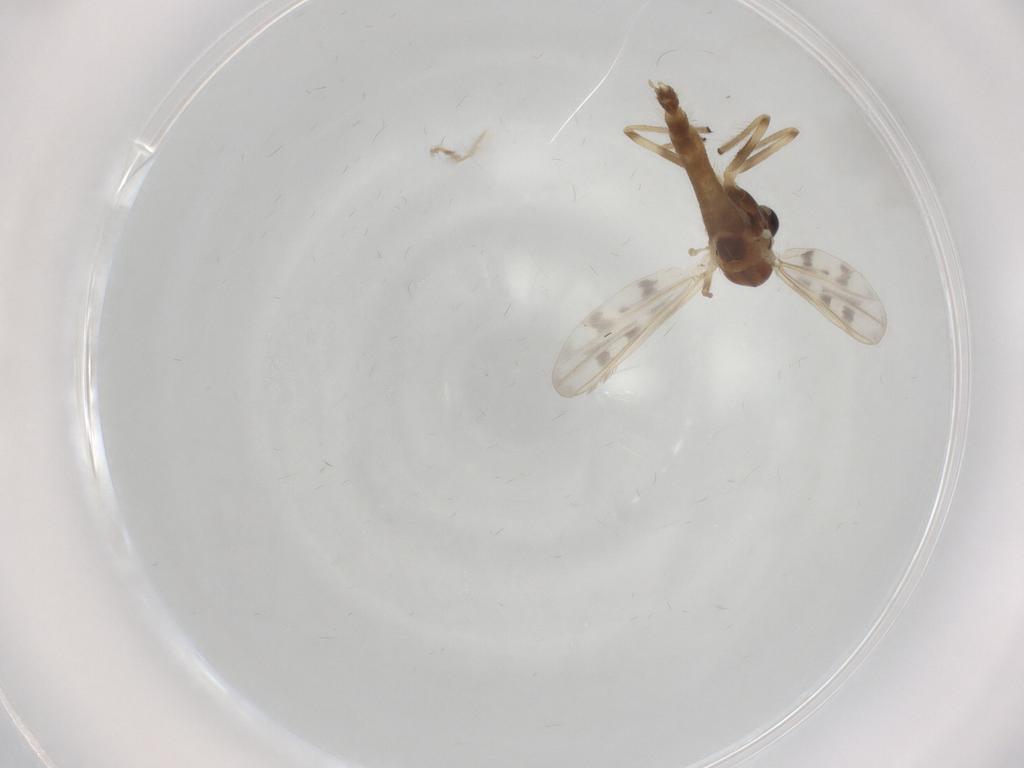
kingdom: Animalia
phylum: Arthropoda
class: Insecta
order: Diptera
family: Chironomidae
